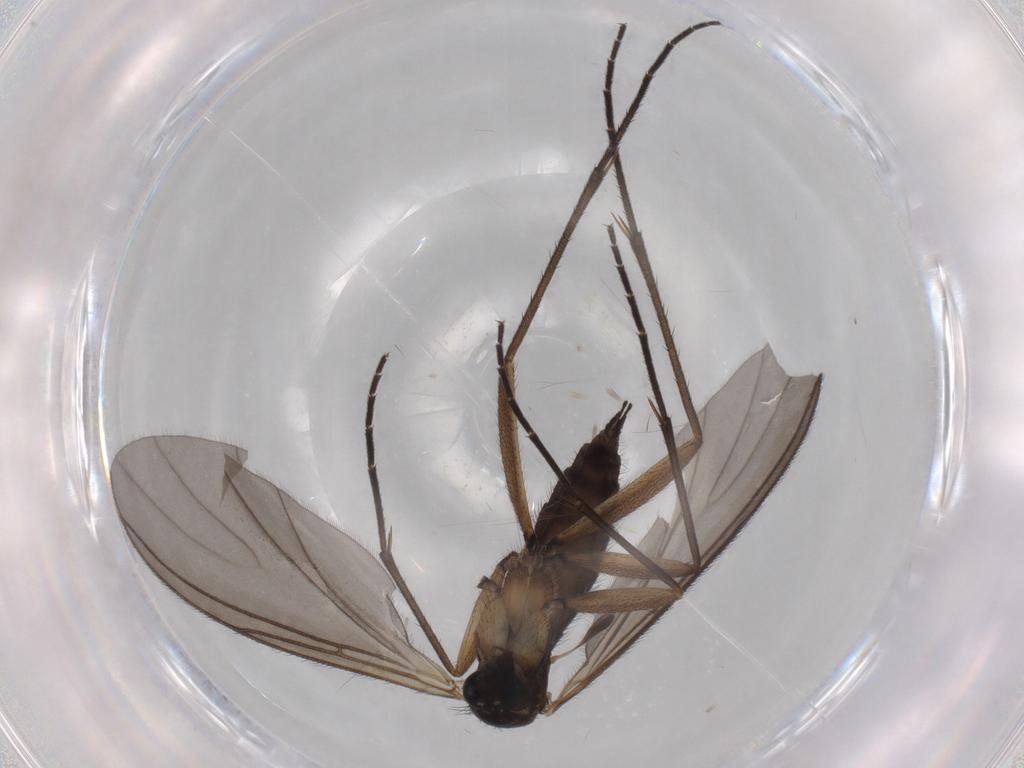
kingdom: Animalia
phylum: Arthropoda
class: Insecta
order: Diptera
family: Sciaridae
